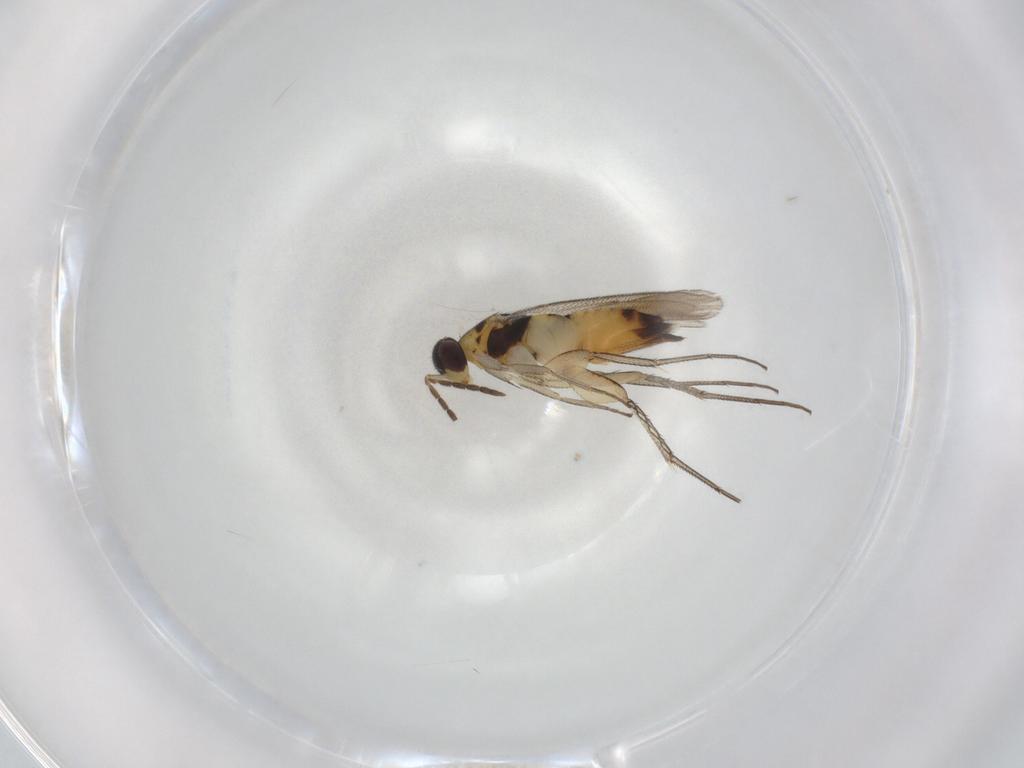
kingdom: Animalia
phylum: Arthropoda
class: Insecta
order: Hymenoptera
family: Eulophidae
